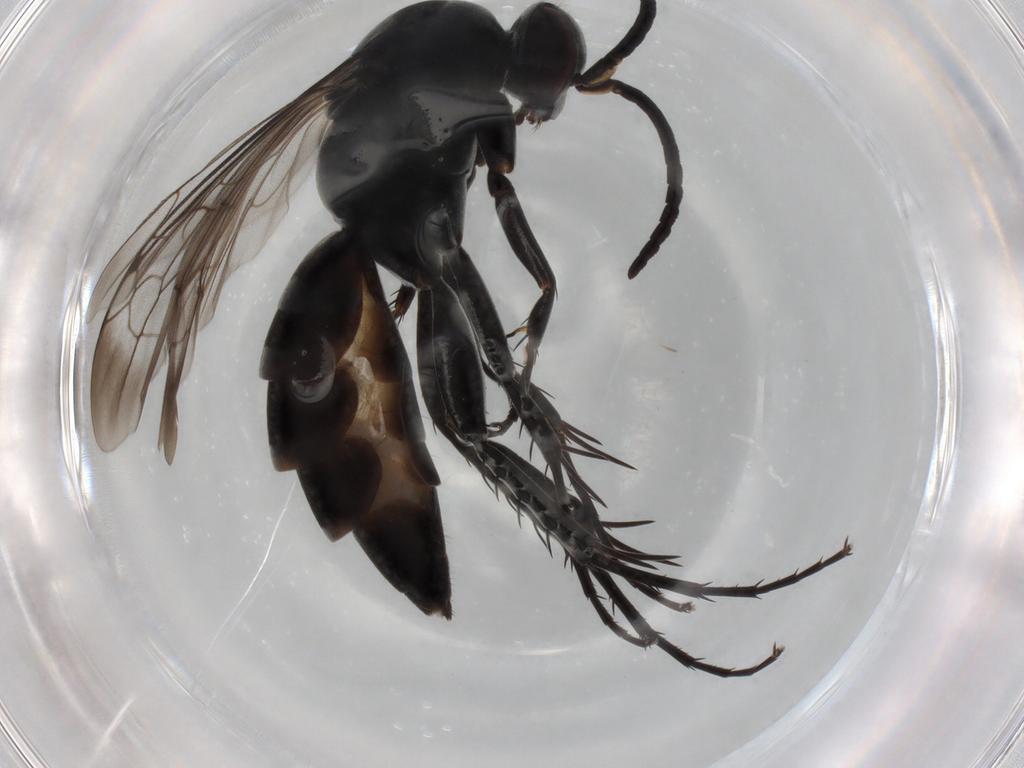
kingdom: Animalia
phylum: Arthropoda
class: Insecta
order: Hymenoptera
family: Pompilidae
